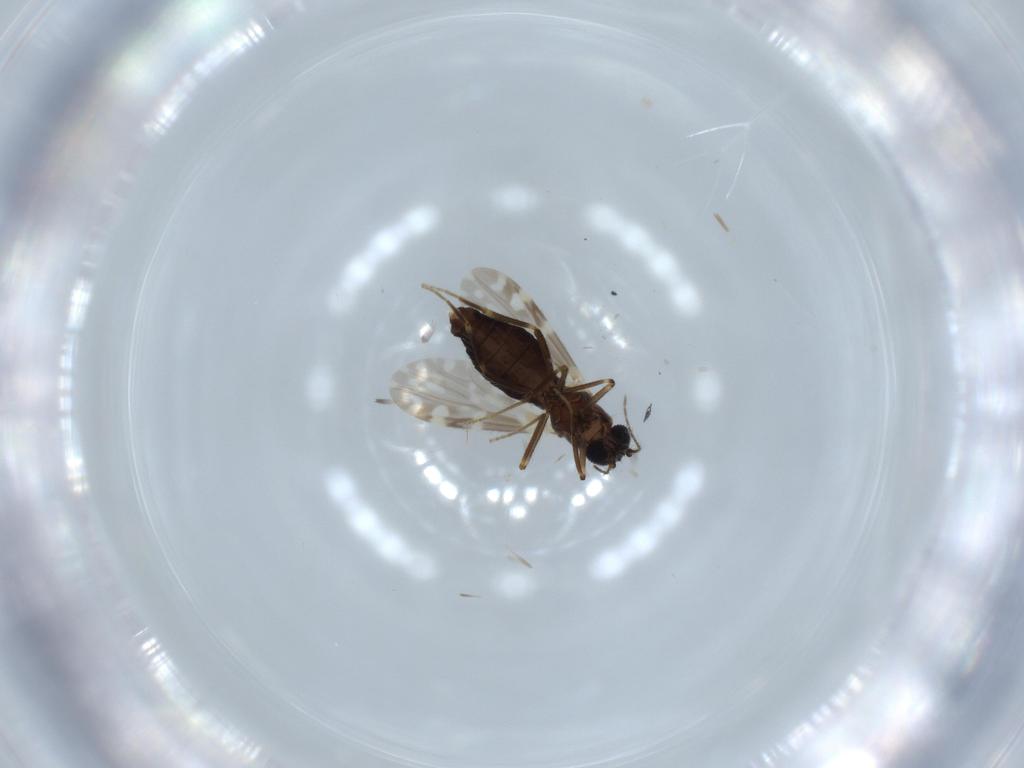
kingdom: Animalia
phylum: Arthropoda
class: Insecta
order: Diptera
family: Ceratopogonidae
